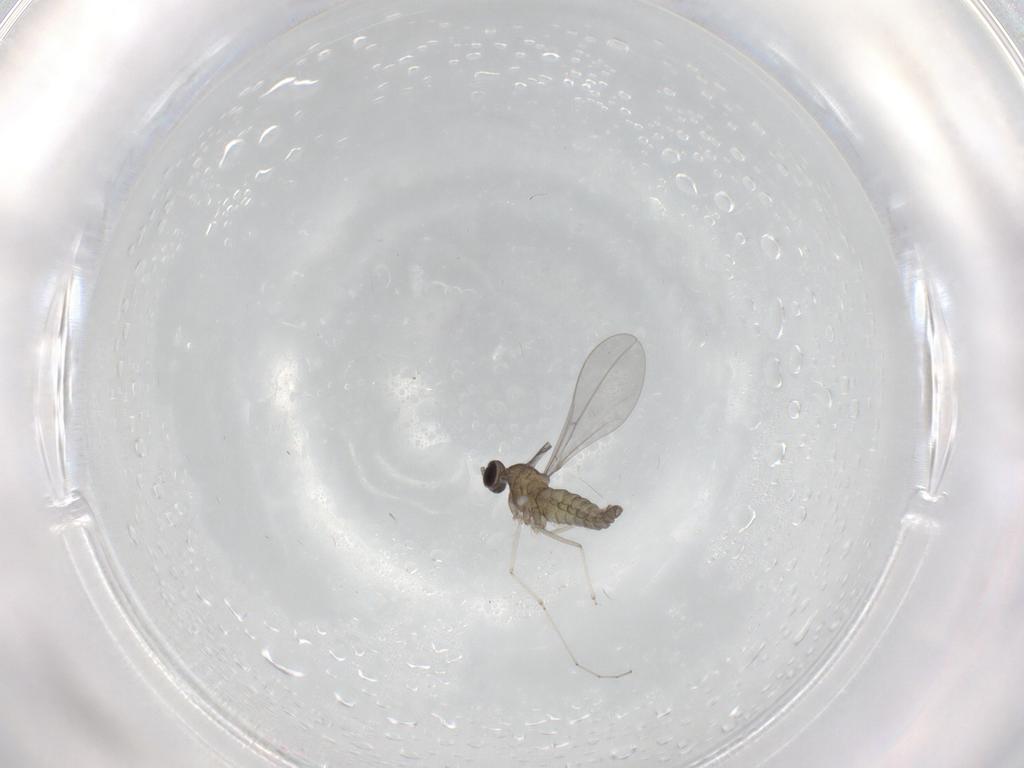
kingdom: Animalia
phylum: Arthropoda
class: Insecta
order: Diptera
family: Cecidomyiidae
